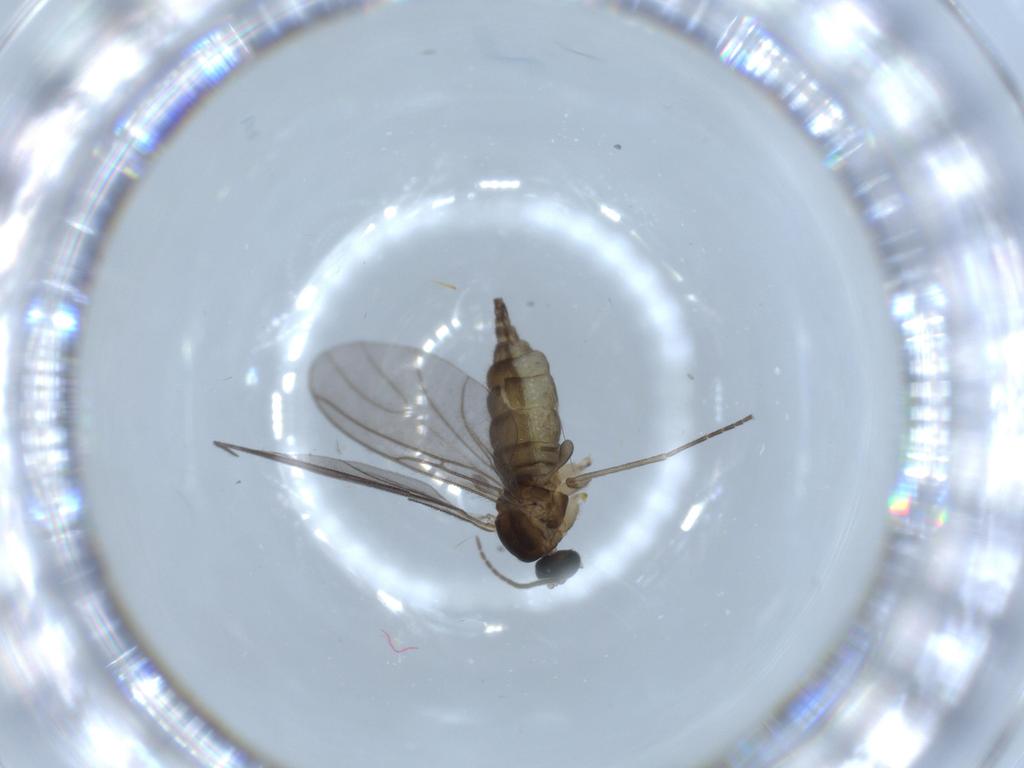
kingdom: Animalia
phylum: Arthropoda
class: Insecta
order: Diptera
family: Sciaridae
